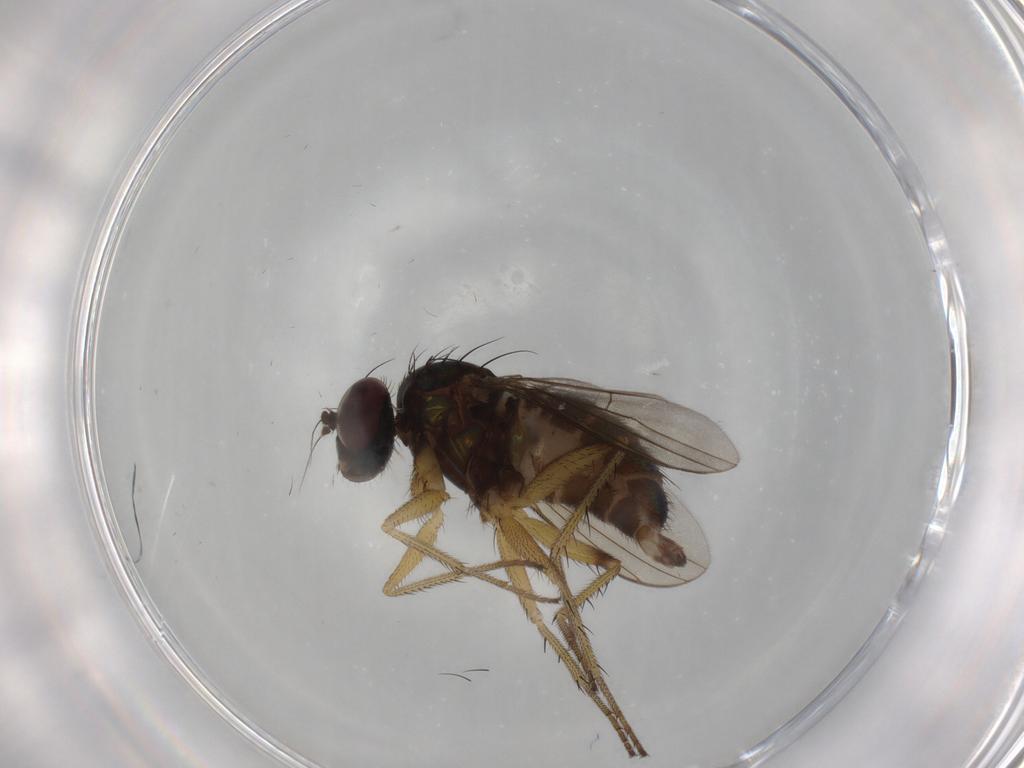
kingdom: Animalia
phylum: Arthropoda
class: Insecta
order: Diptera
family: Dolichopodidae
